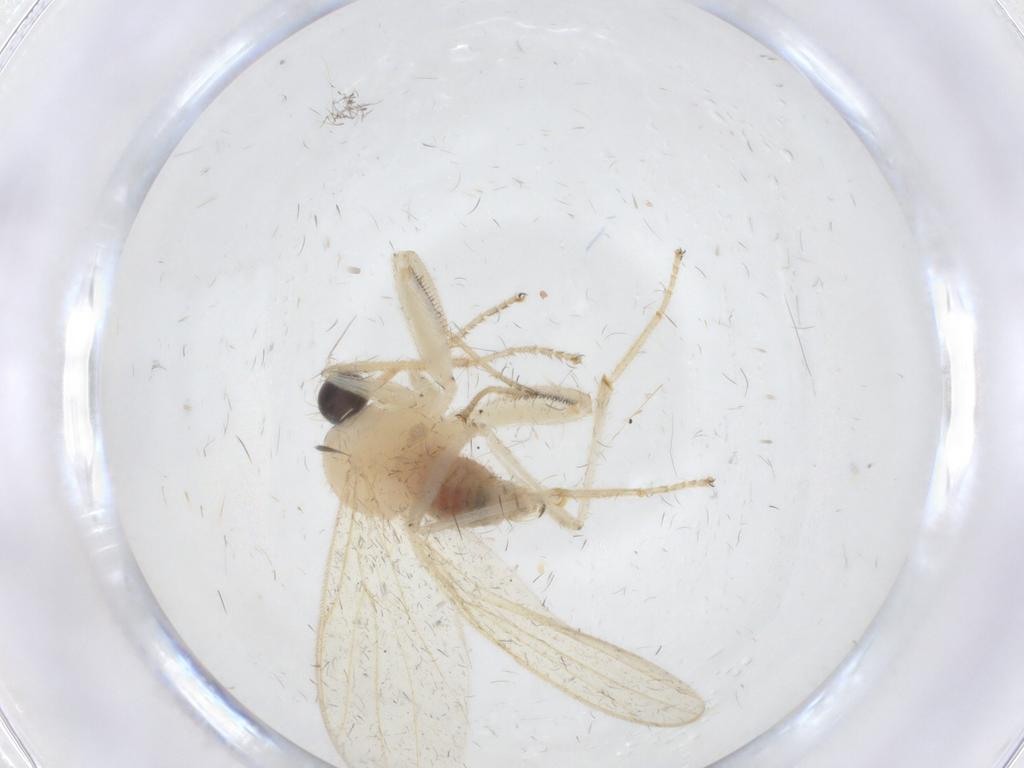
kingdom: Animalia
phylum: Arthropoda
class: Insecta
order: Diptera
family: Hybotidae
